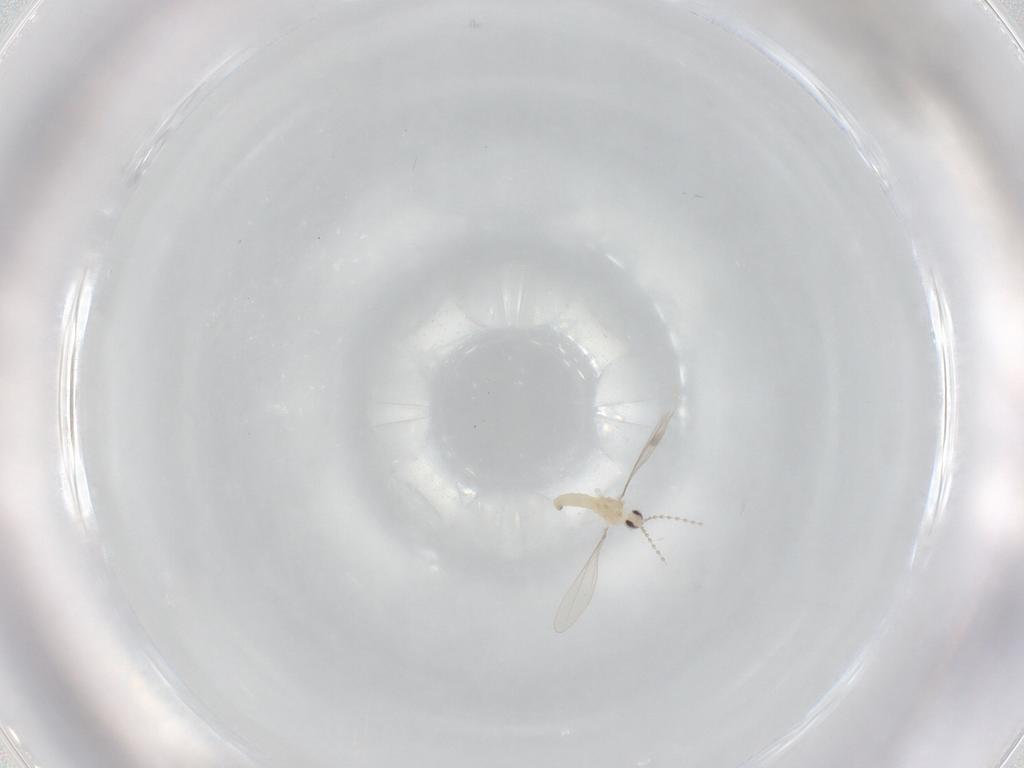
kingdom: Animalia
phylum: Arthropoda
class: Insecta
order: Diptera
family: Cecidomyiidae
